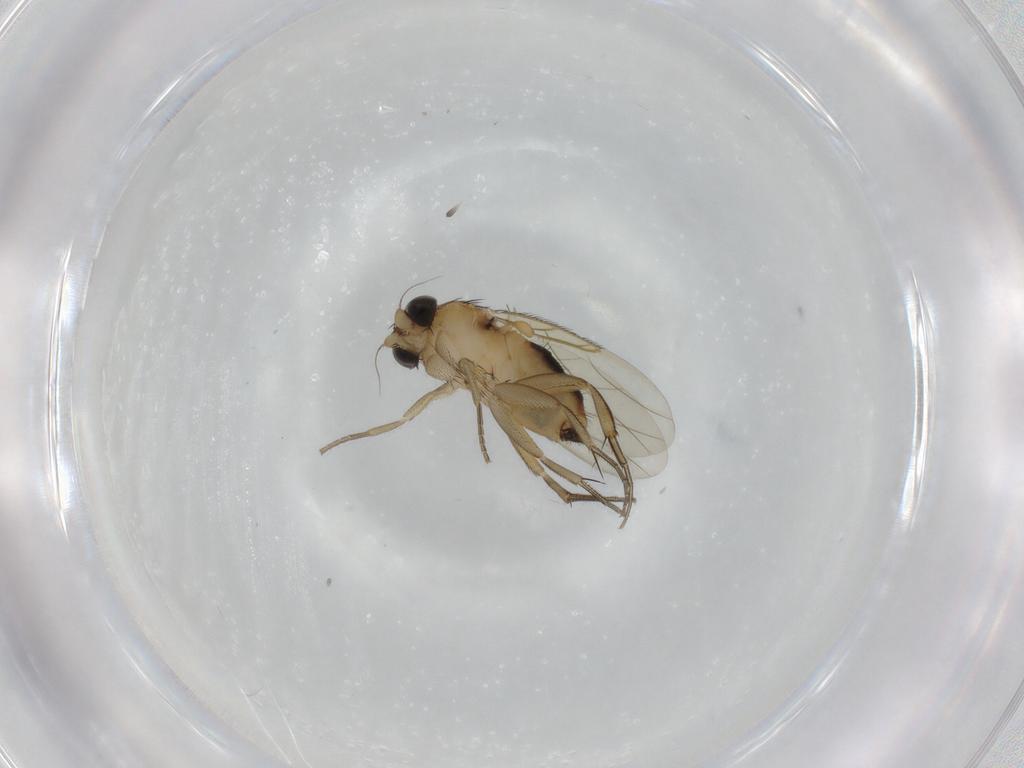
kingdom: Animalia
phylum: Arthropoda
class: Insecta
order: Diptera
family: Phoridae
